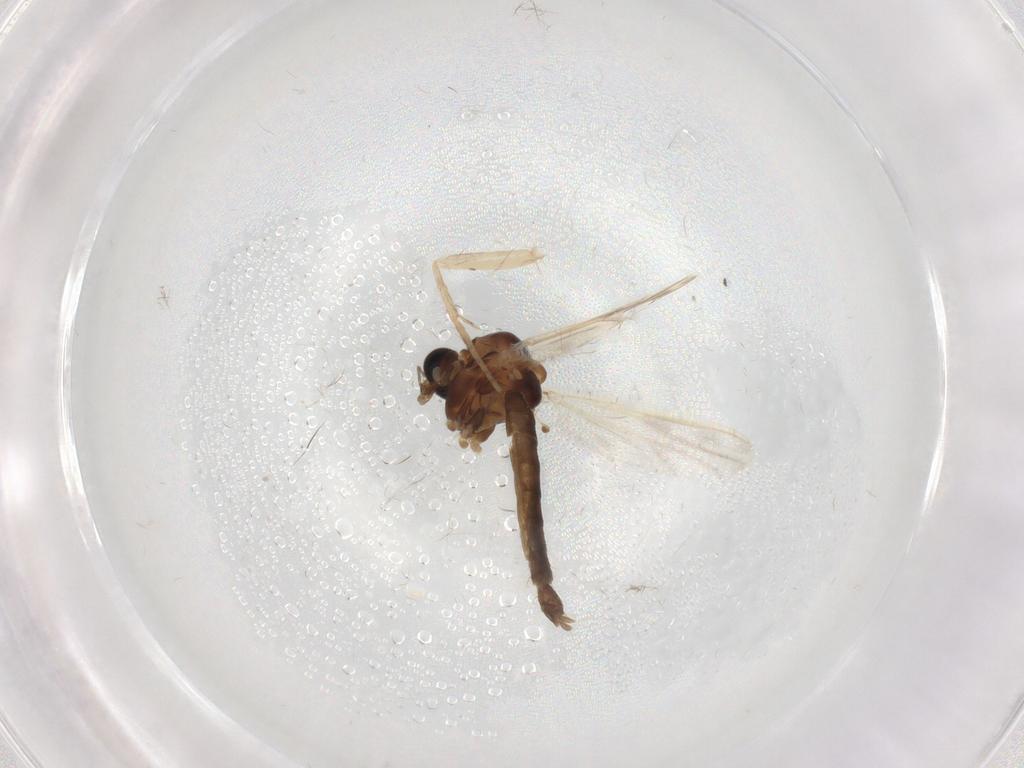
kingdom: Animalia
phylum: Arthropoda
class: Insecta
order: Diptera
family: Chironomidae
